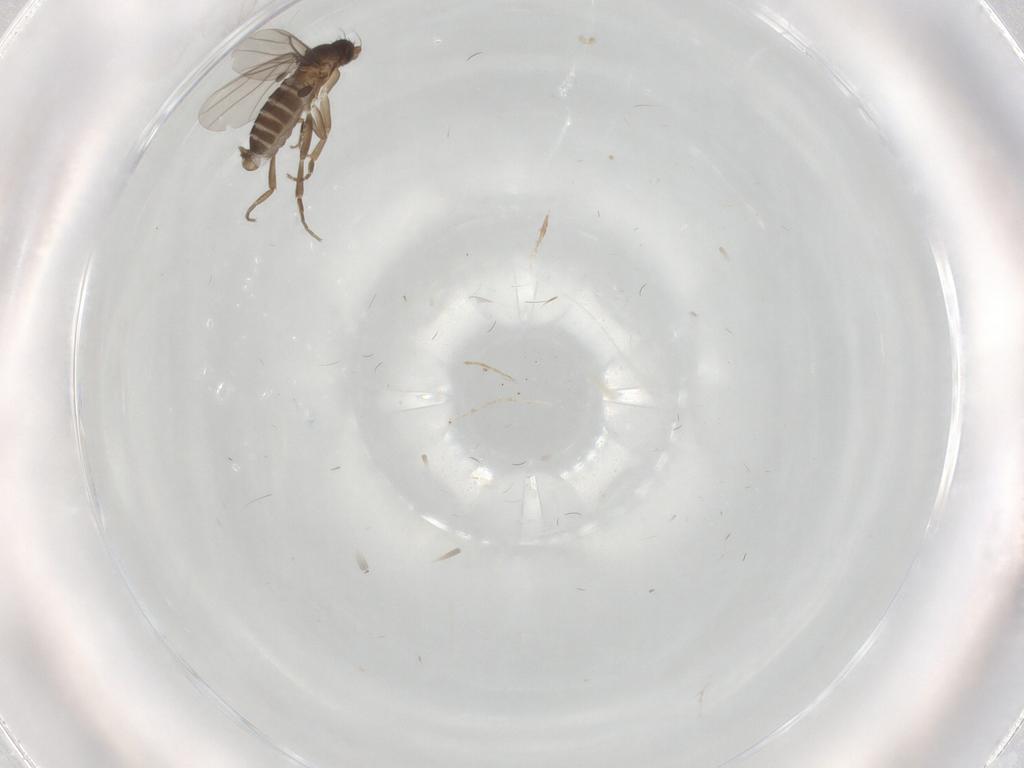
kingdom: Animalia
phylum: Arthropoda
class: Insecta
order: Diptera
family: Phoridae
